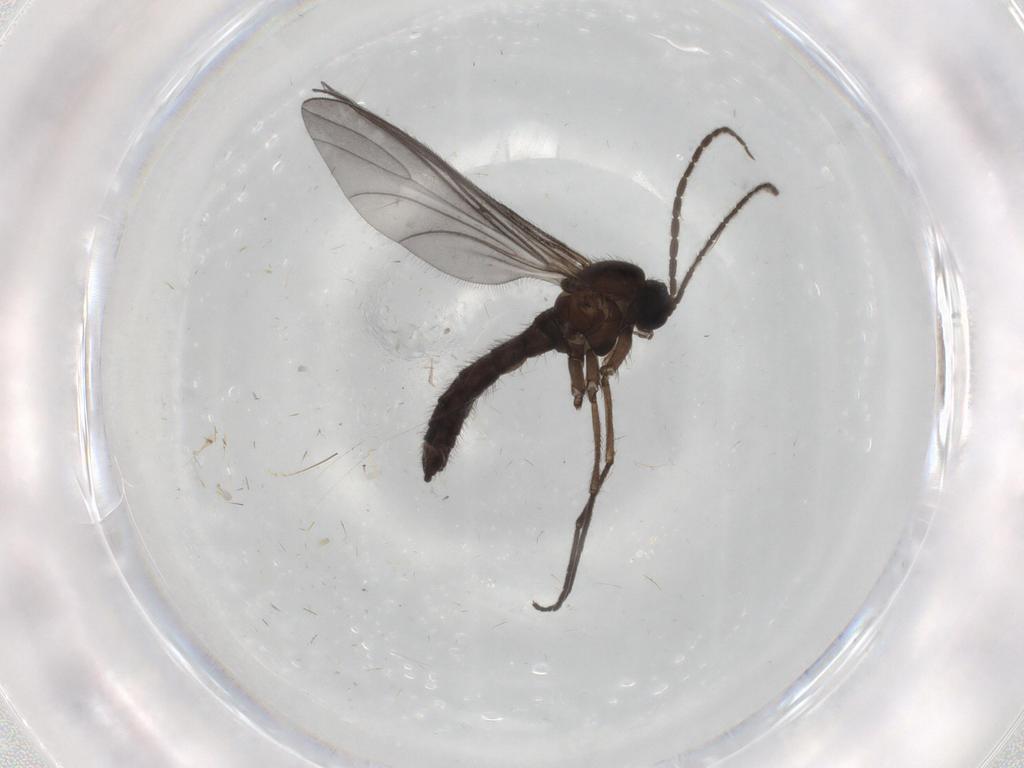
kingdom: Animalia
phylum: Arthropoda
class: Insecta
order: Diptera
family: Sciaridae
